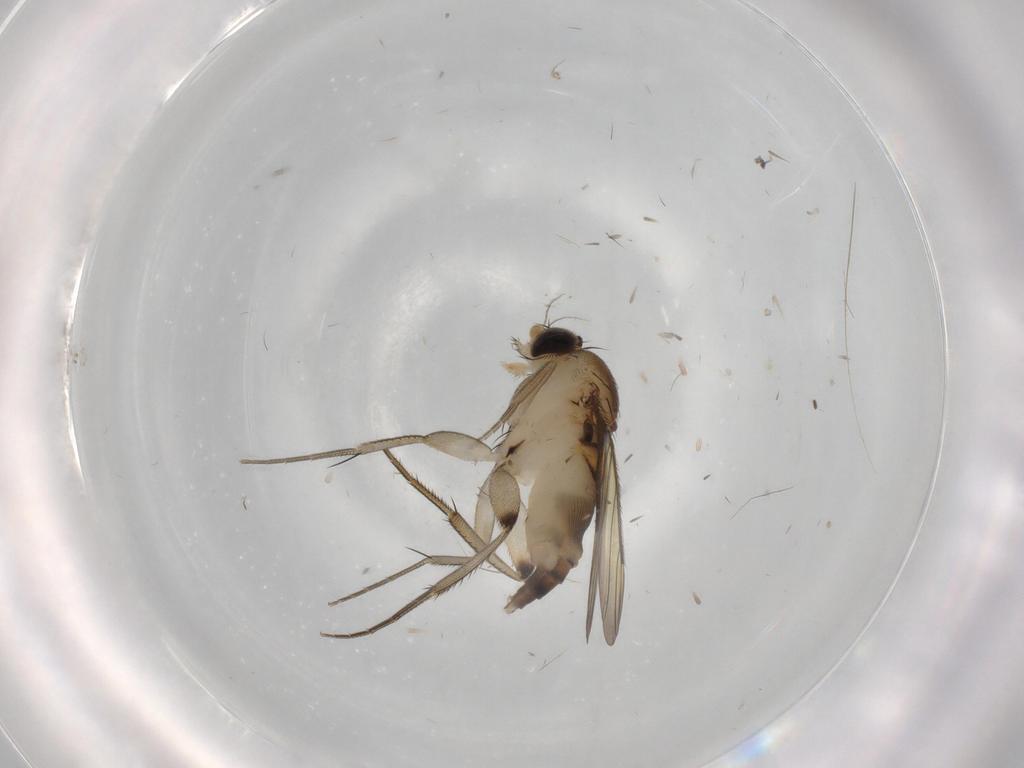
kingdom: Animalia
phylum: Arthropoda
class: Insecta
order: Diptera
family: Phoridae
